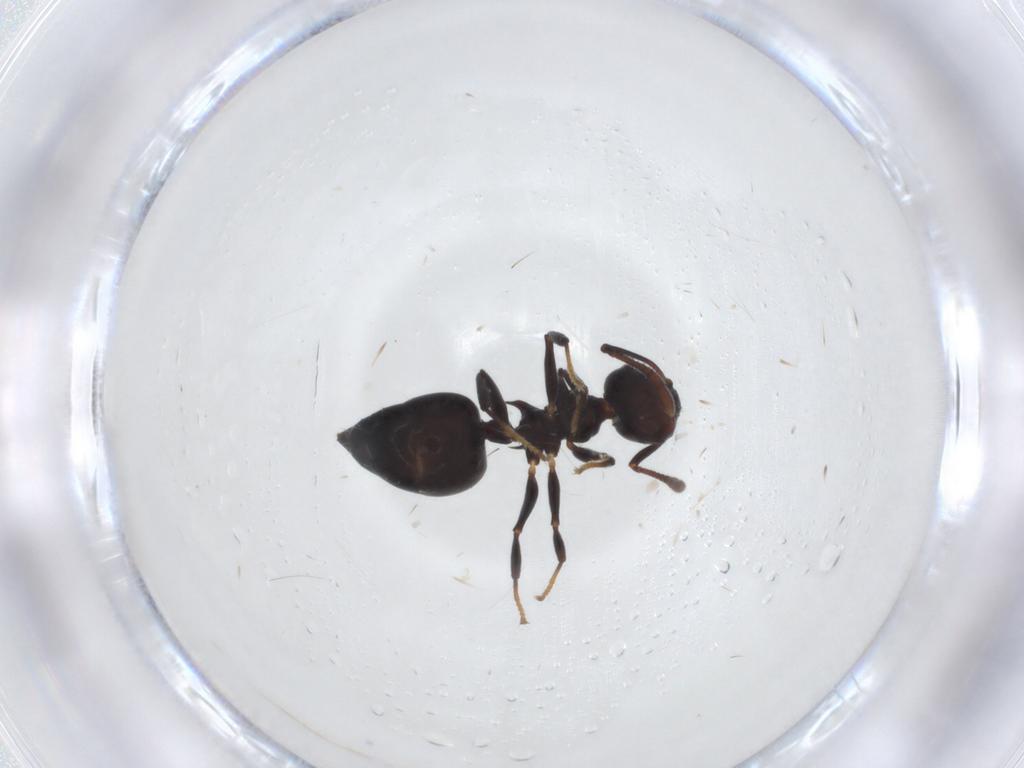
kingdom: Animalia
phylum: Arthropoda
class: Insecta
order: Hymenoptera
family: Formicidae
